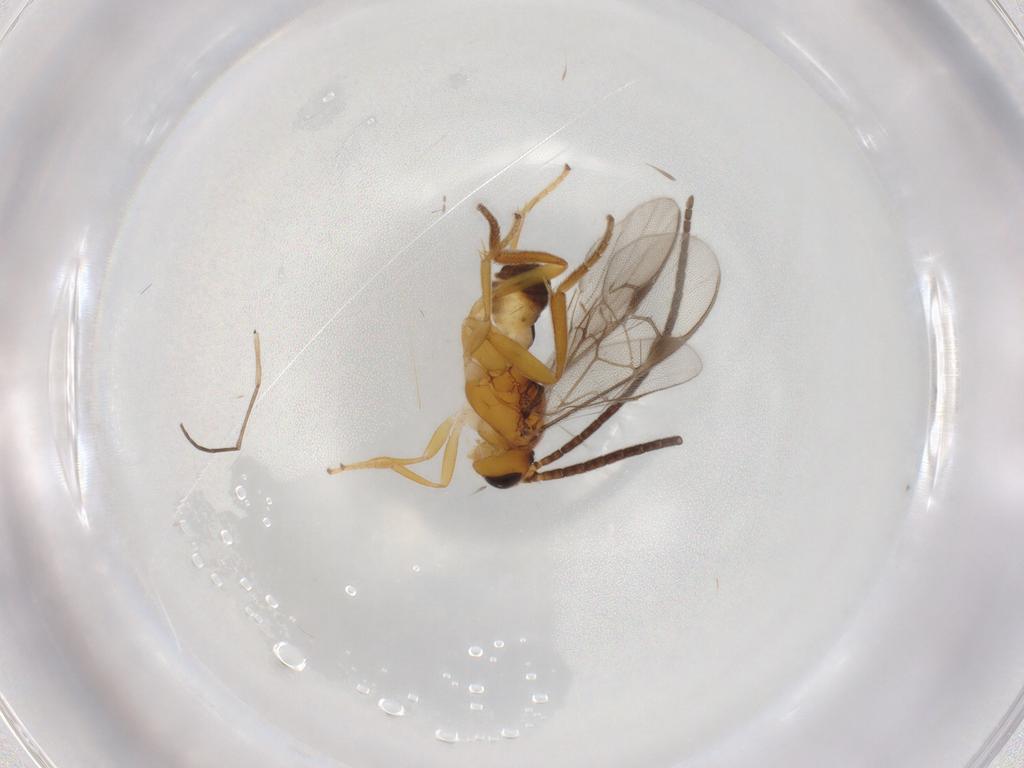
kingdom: Animalia
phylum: Arthropoda
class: Insecta
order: Hymenoptera
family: Braconidae
